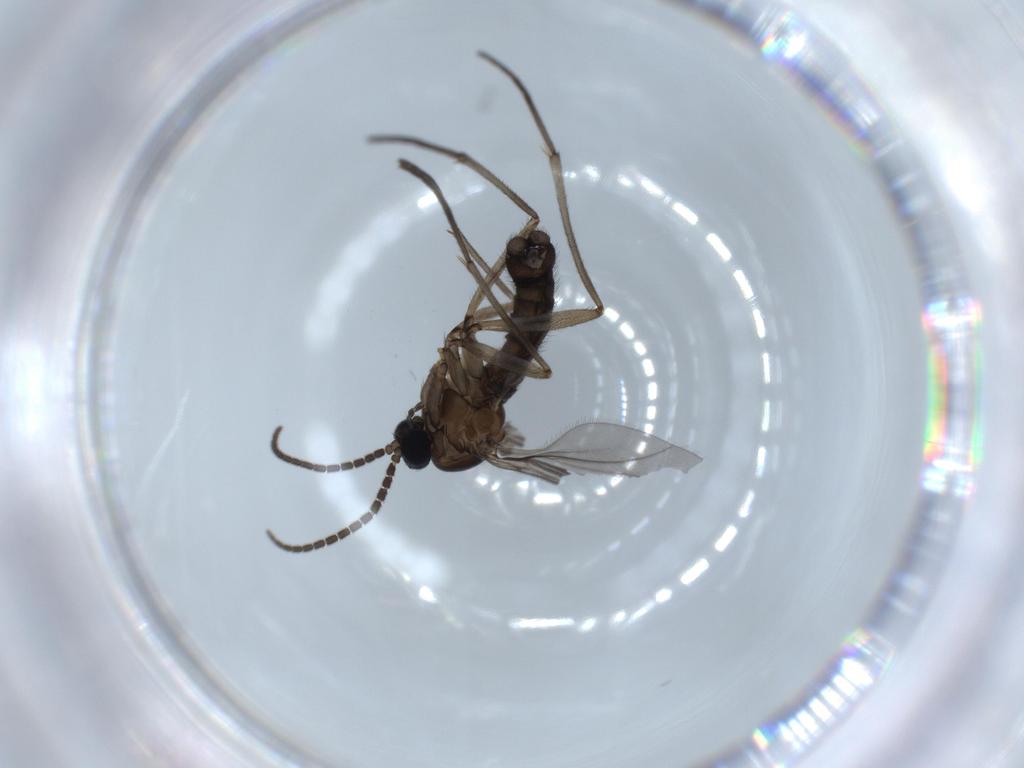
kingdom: Animalia
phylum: Arthropoda
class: Insecta
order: Diptera
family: Sciaridae
